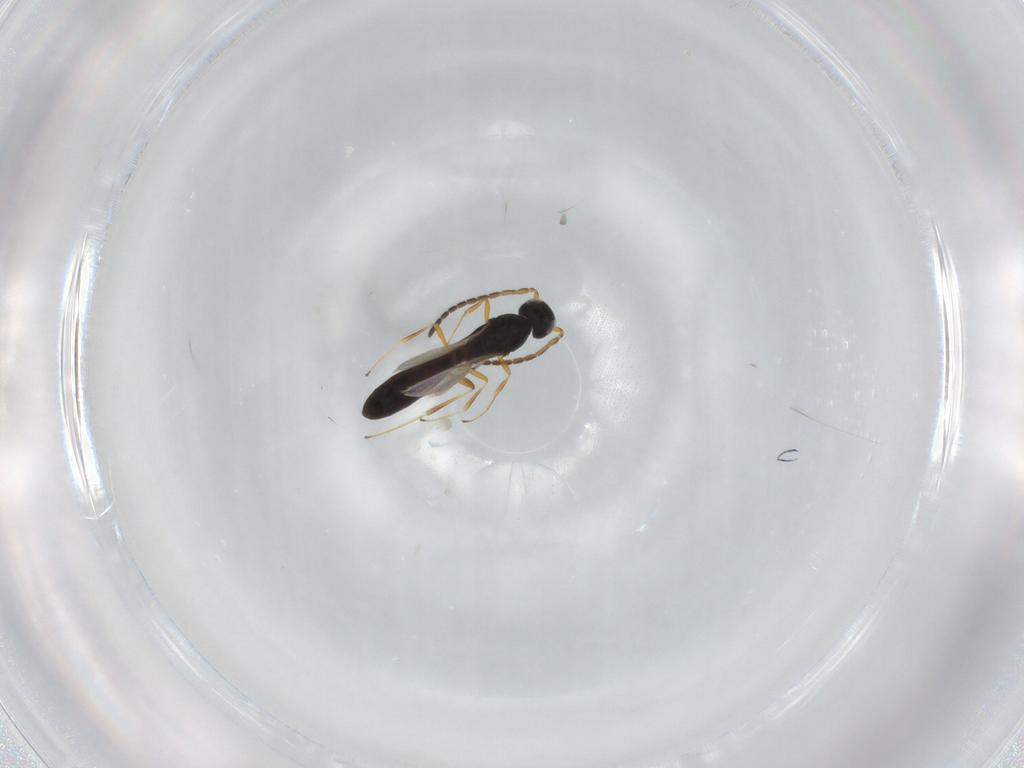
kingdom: Animalia
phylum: Arthropoda
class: Insecta
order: Hymenoptera
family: Scelionidae
